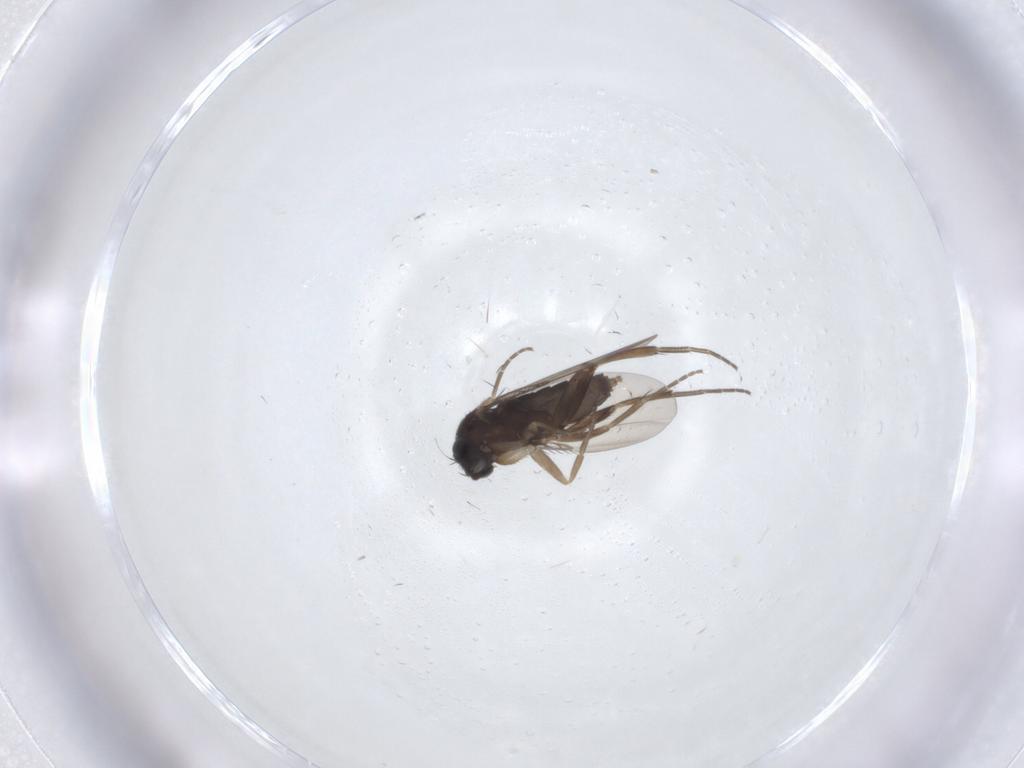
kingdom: Animalia
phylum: Arthropoda
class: Insecta
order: Diptera
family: Phoridae
